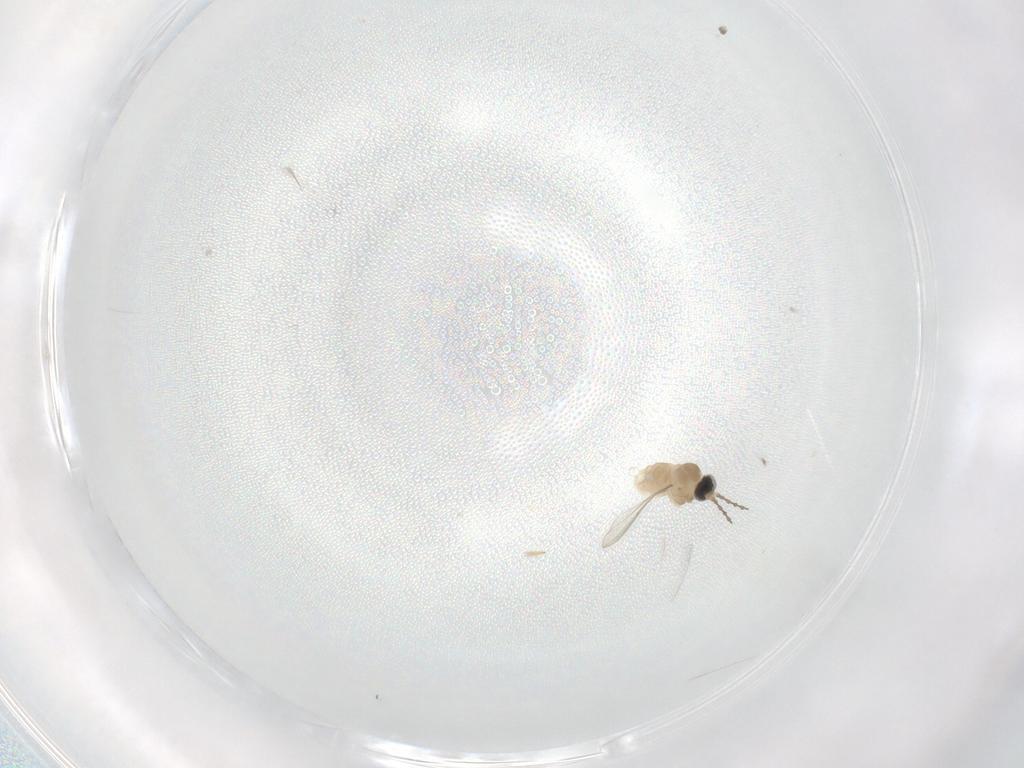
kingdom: Animalia
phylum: Arthropoda
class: Insecta
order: Diptera
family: Cecidomyiidae
